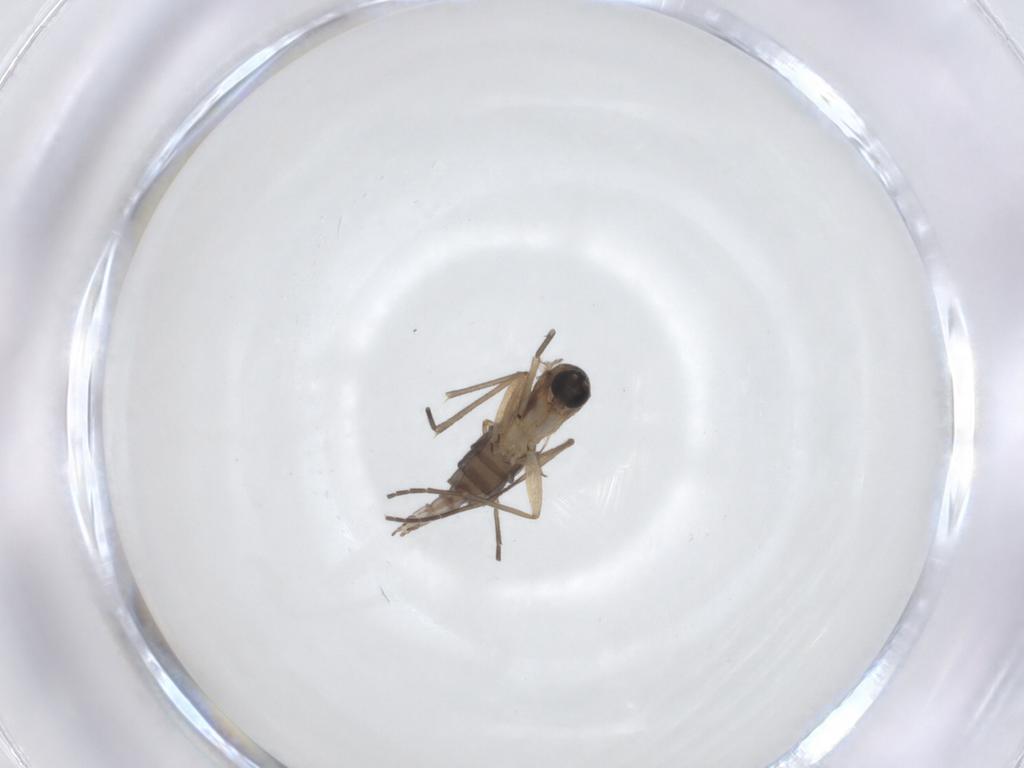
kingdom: Animalia
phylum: Arthropoda
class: Insecta
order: Diptera
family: Sciaridae
